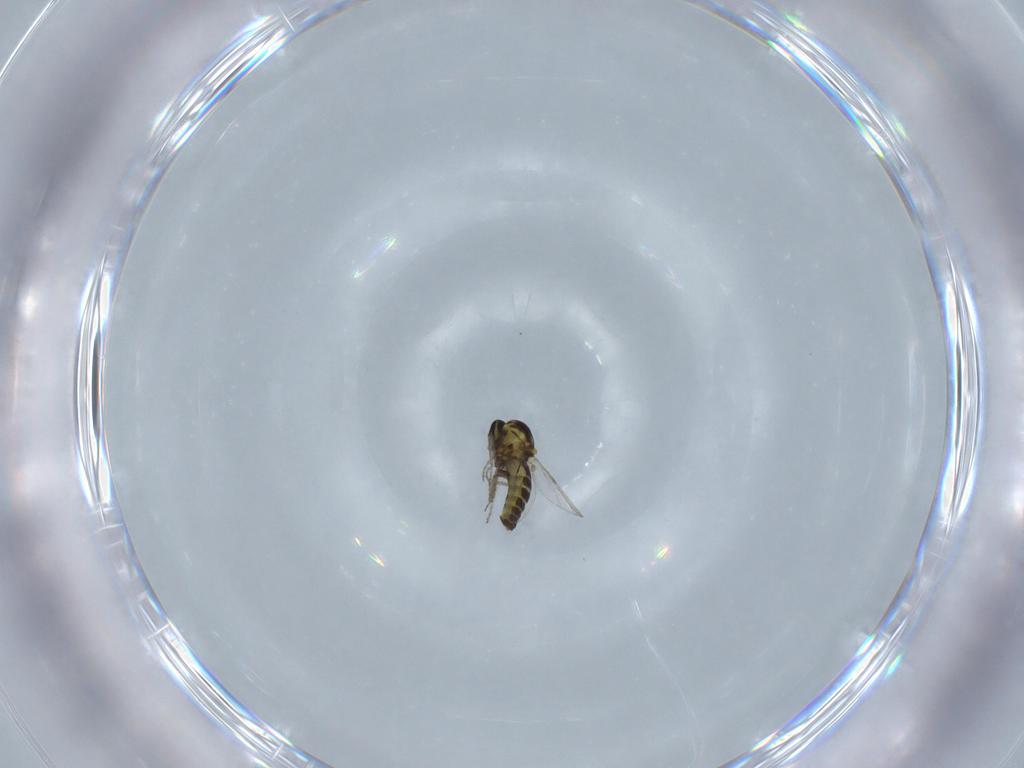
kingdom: Animalia
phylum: Arthropoda
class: Insecta
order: Diptera
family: Ceratopogonidae
